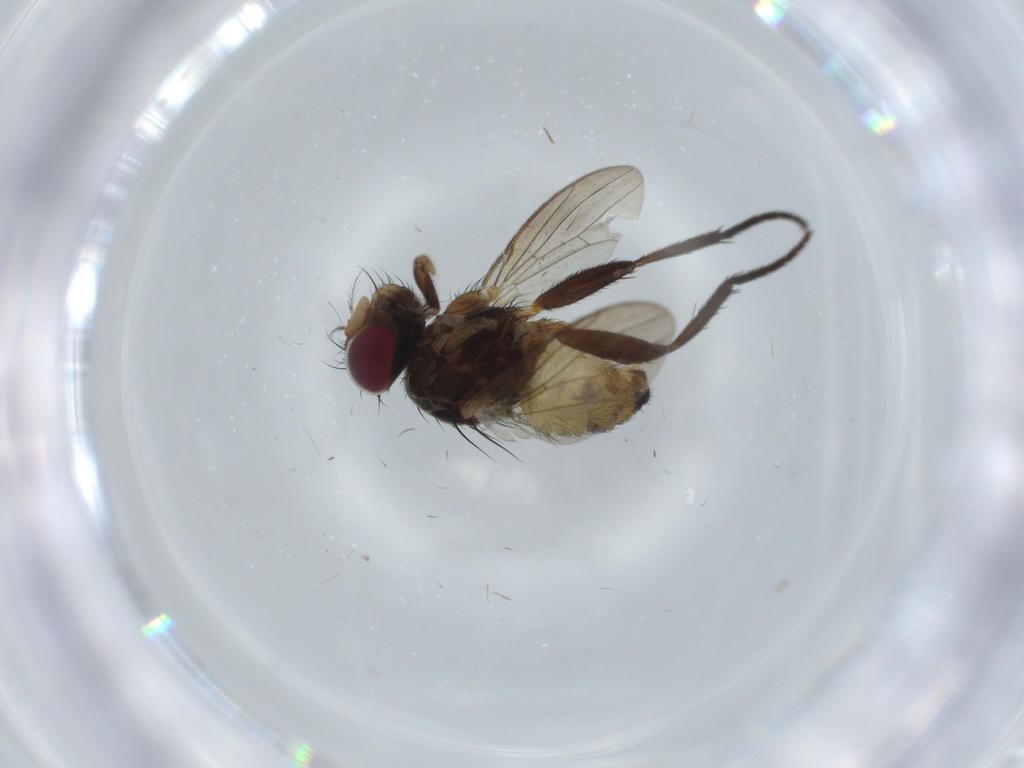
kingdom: Animalia
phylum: Arthropoda
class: Insecta
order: Diptera
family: Anthomyiidae
